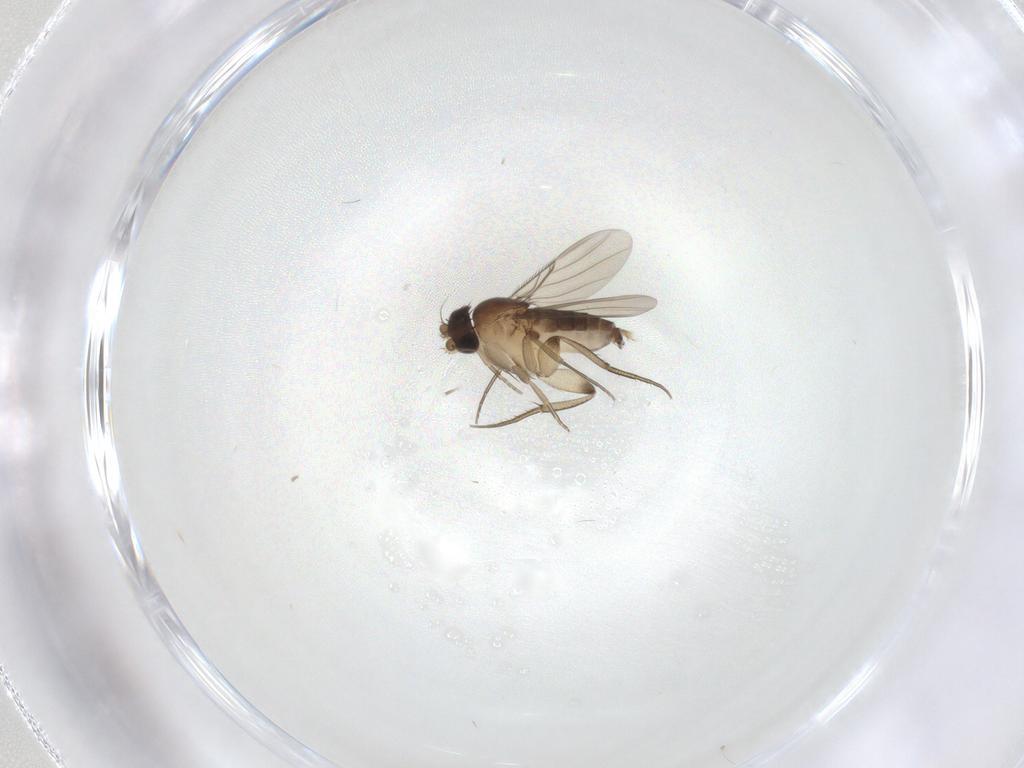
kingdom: Animalia
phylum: Arthropoda
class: Insecta
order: Diptera
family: Phoridae
